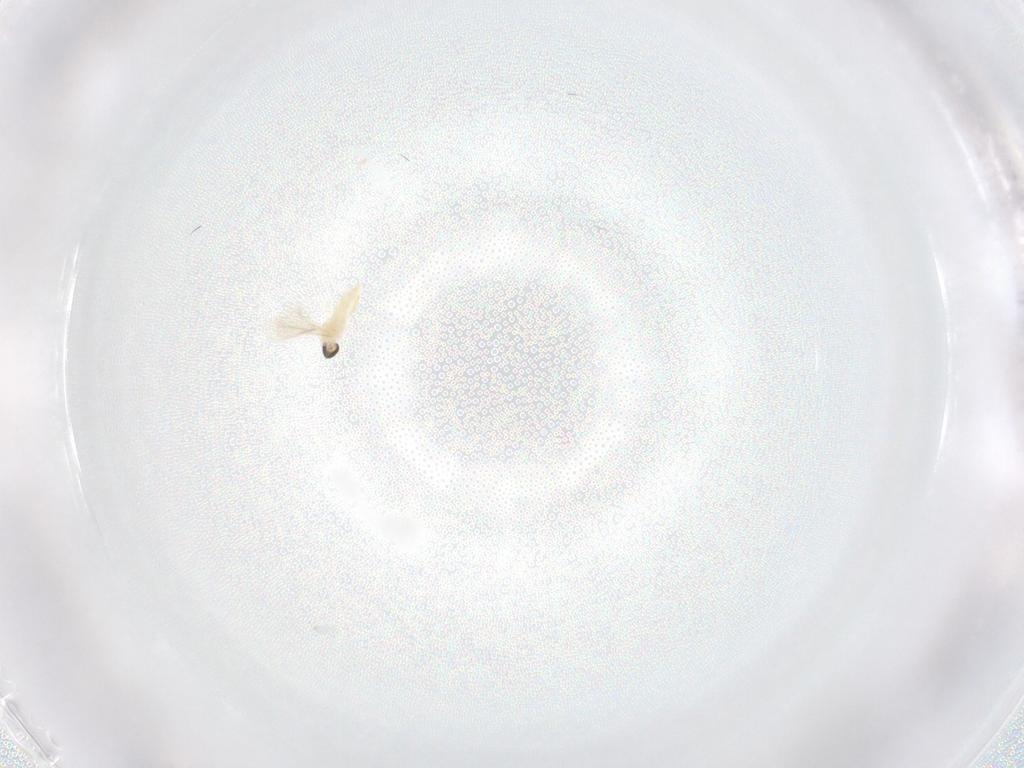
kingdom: Animalia
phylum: Arthropoda
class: Insecta
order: Diptera
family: Cecidomyiidae
